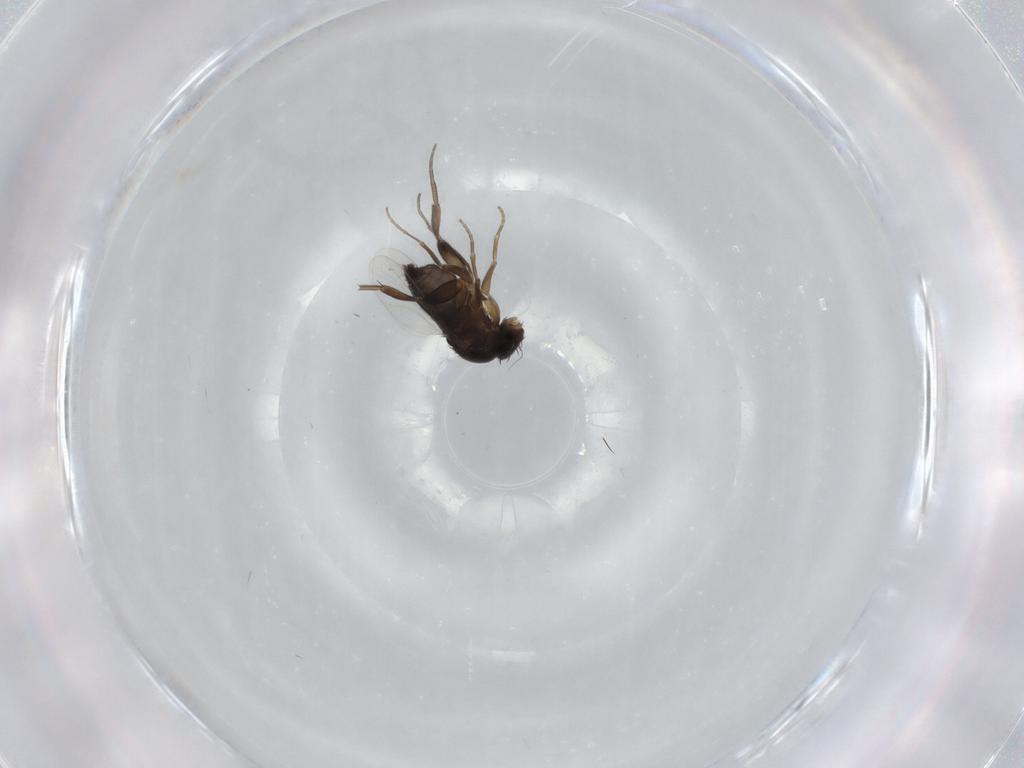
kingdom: Animalia
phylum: Arthropoda
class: Insecta
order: Diptera
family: Phoridae
